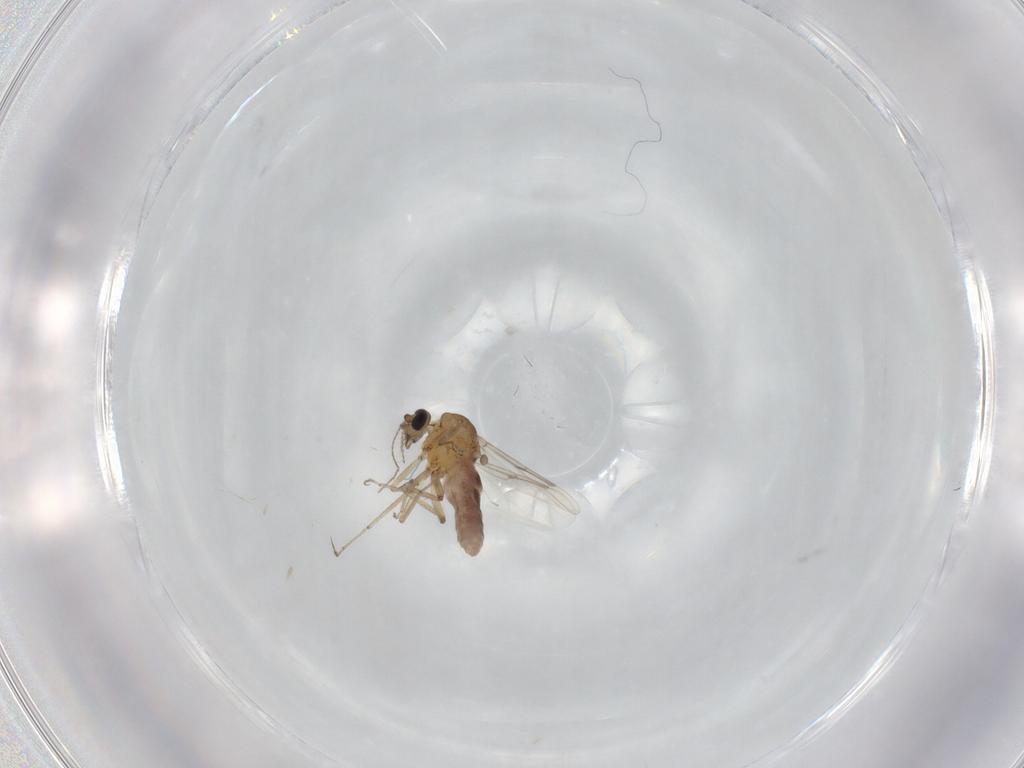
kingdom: Animalia
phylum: Arthropoda
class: Insecta
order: Diptera
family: Ceratopogonidae
